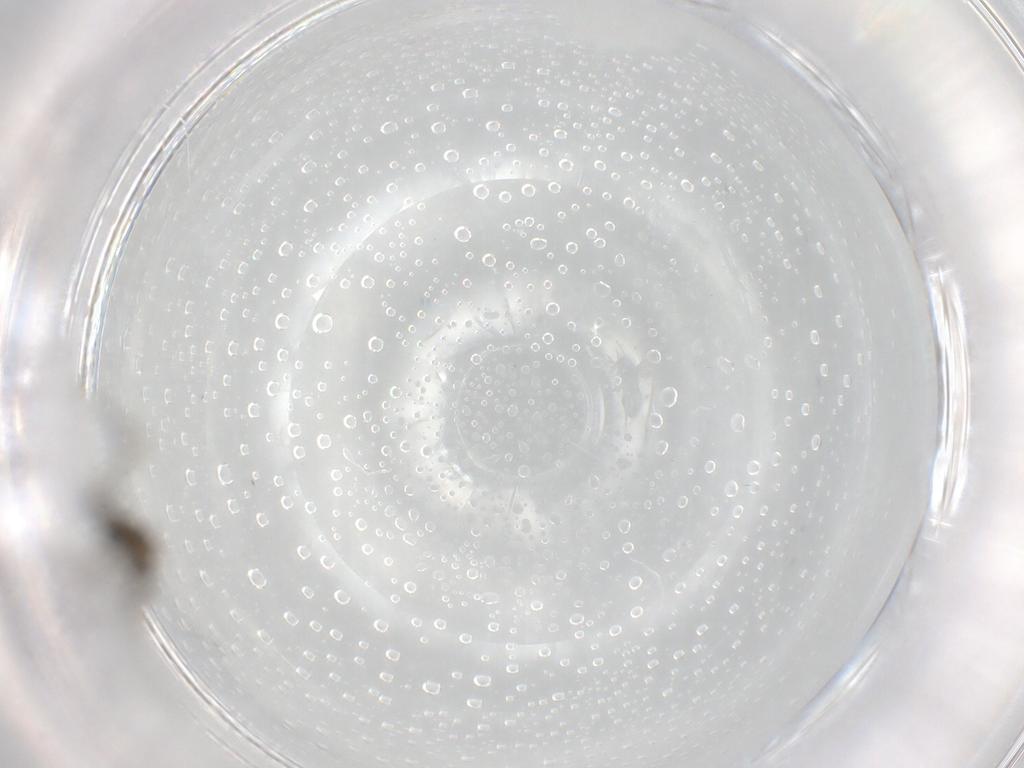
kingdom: Animalia
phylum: Arthropoda
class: Insecta
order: Diptera
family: Sciaridae
